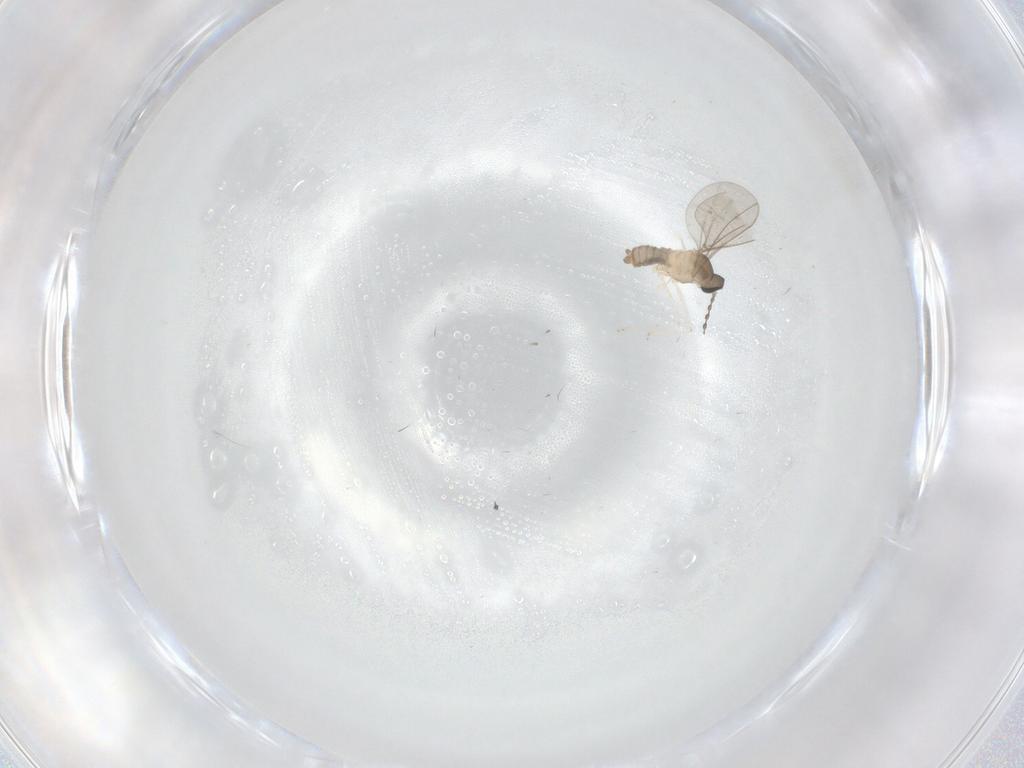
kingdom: Animalia
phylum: Arthropoda
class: Insecta
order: Diptera
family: Cecidomyiidae
